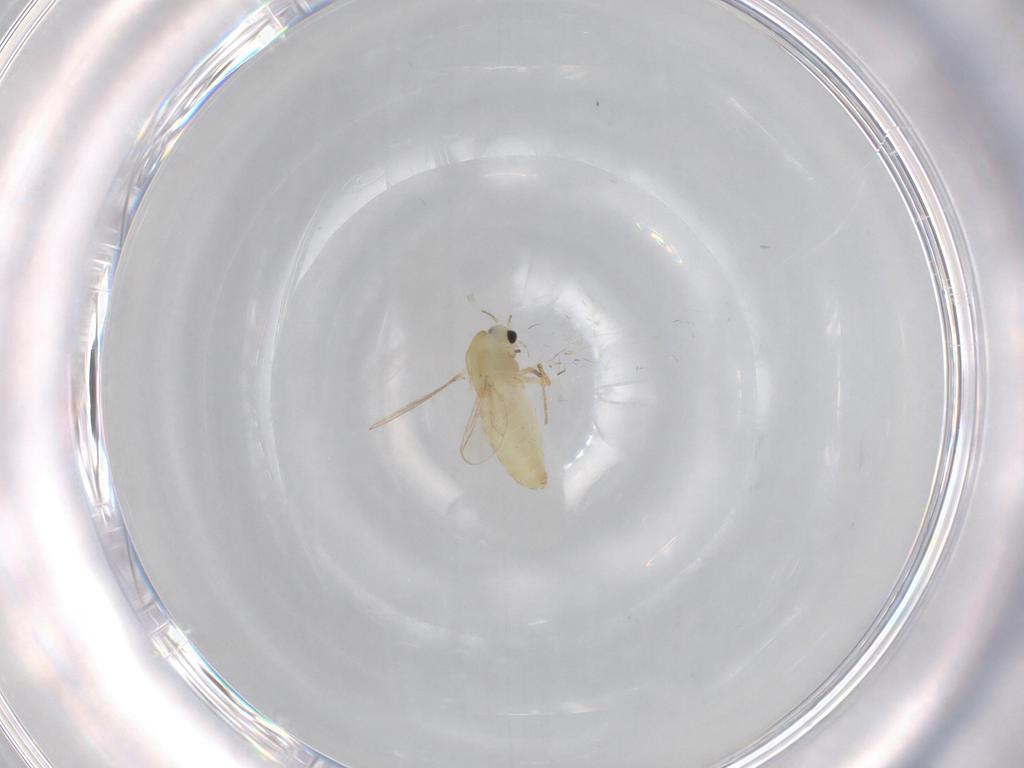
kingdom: Animalia
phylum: Arthropoda
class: Insecta
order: Diptera
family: Chironomidae
